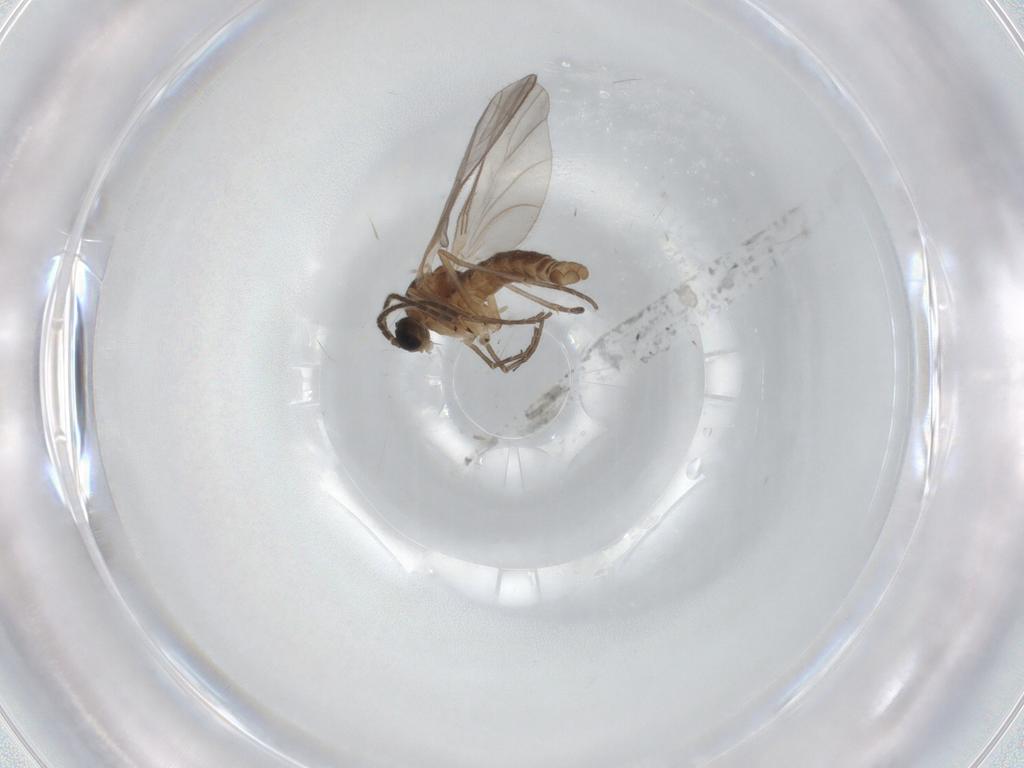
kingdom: Animalia
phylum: Arthropoda
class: Insecta
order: Diptera
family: Sciaridae
